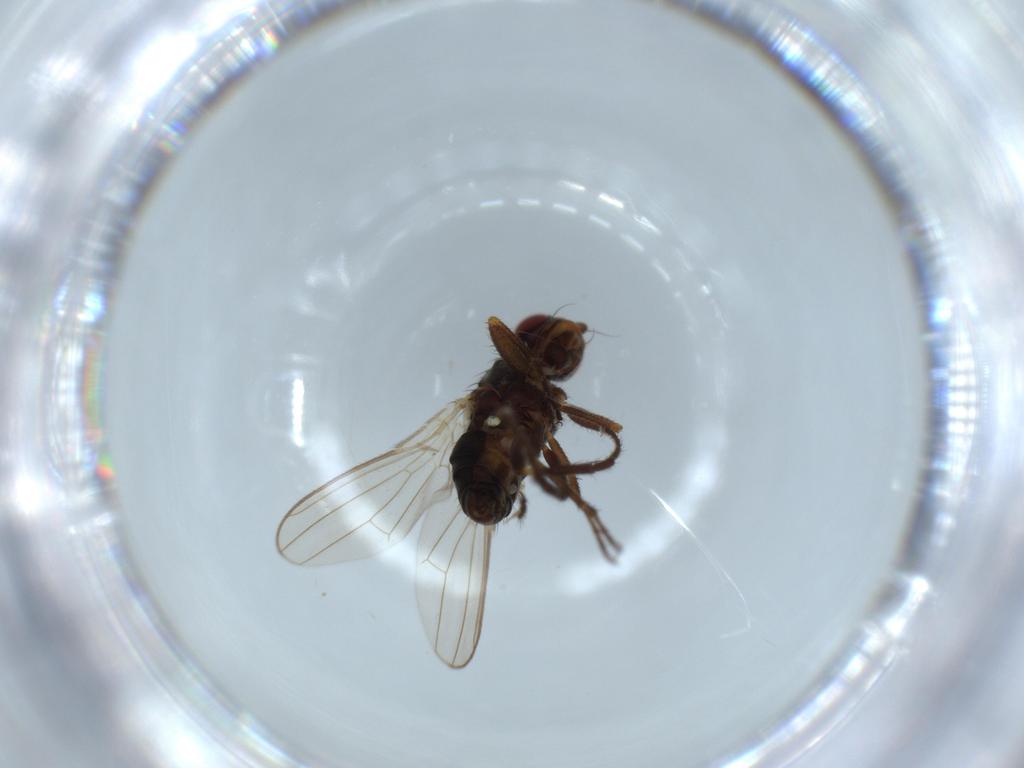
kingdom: Animalia
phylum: Arthropoda
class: Insecta
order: Diptera
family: Sphaeroceridae
